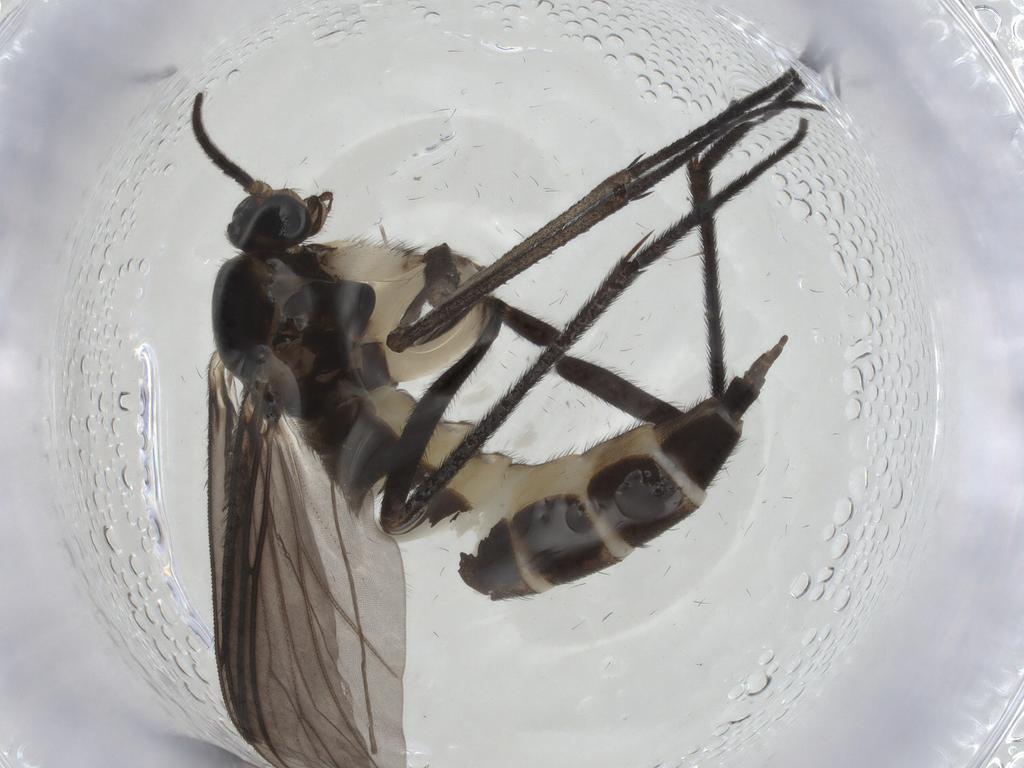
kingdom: Animalia
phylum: Arthropoda
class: Insecta
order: Diptera
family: Sciaridae
